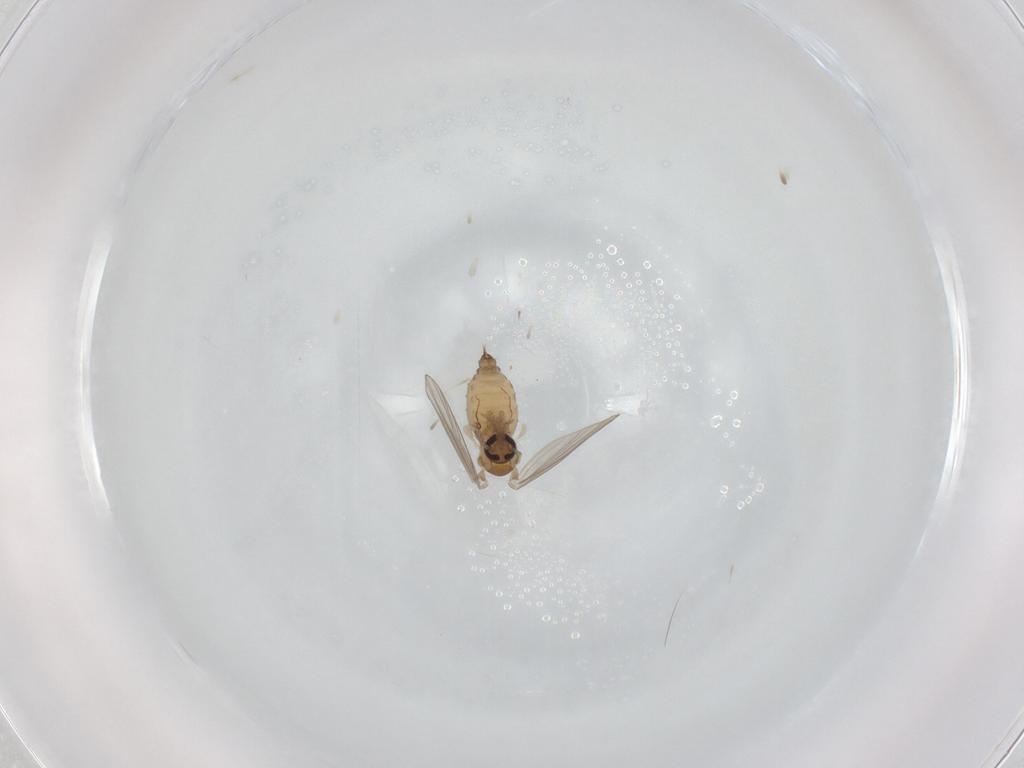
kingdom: Animalia
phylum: Arthropoda
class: Insecta
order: Diptera
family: Psychodidae
